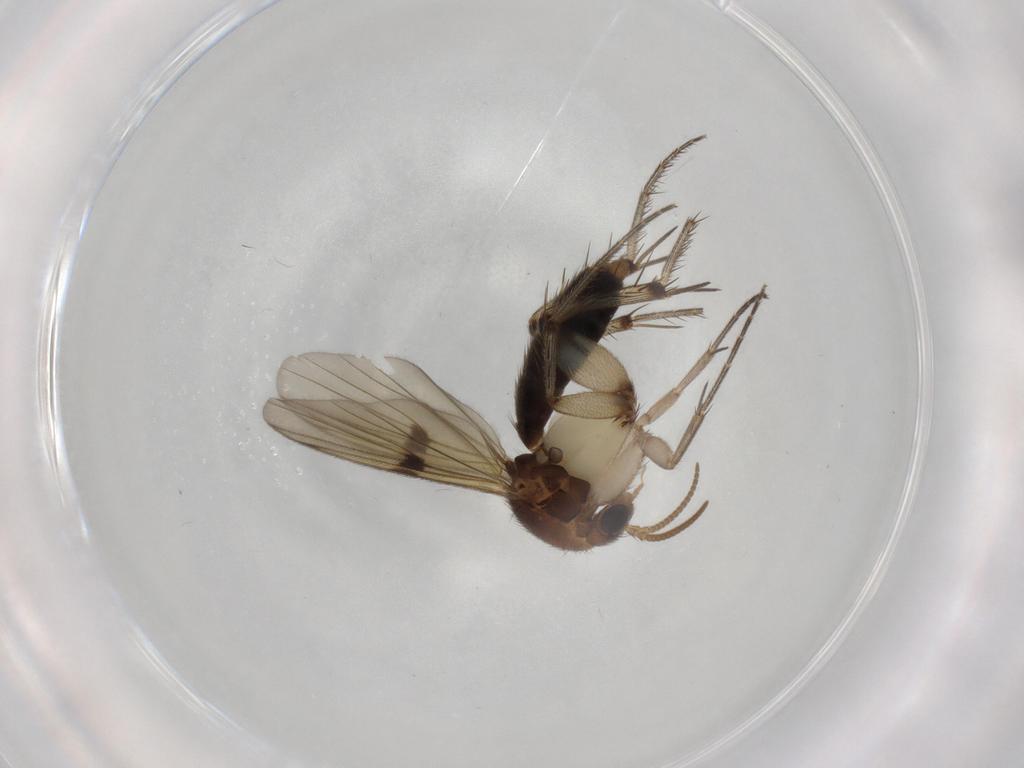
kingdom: Animalia
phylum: Arthropoda
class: Insecta
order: Diptera
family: Mycetophilidae
